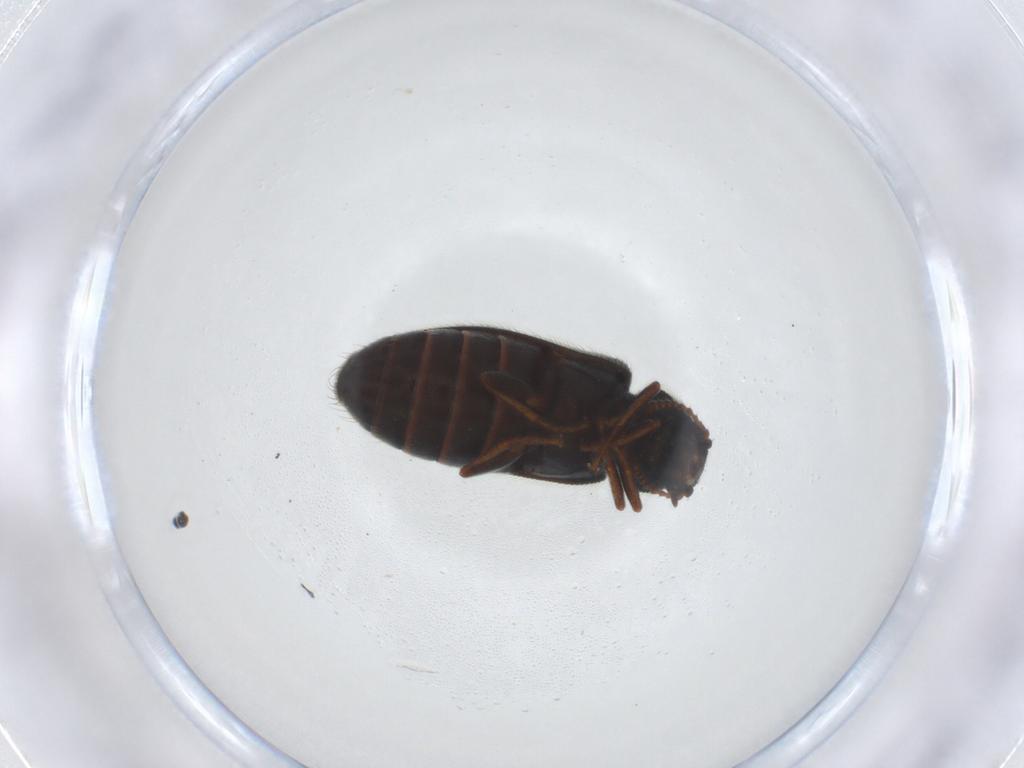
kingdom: Animalia
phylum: Arthropoda
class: Insecta
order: Coleoptera
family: Melyridae
